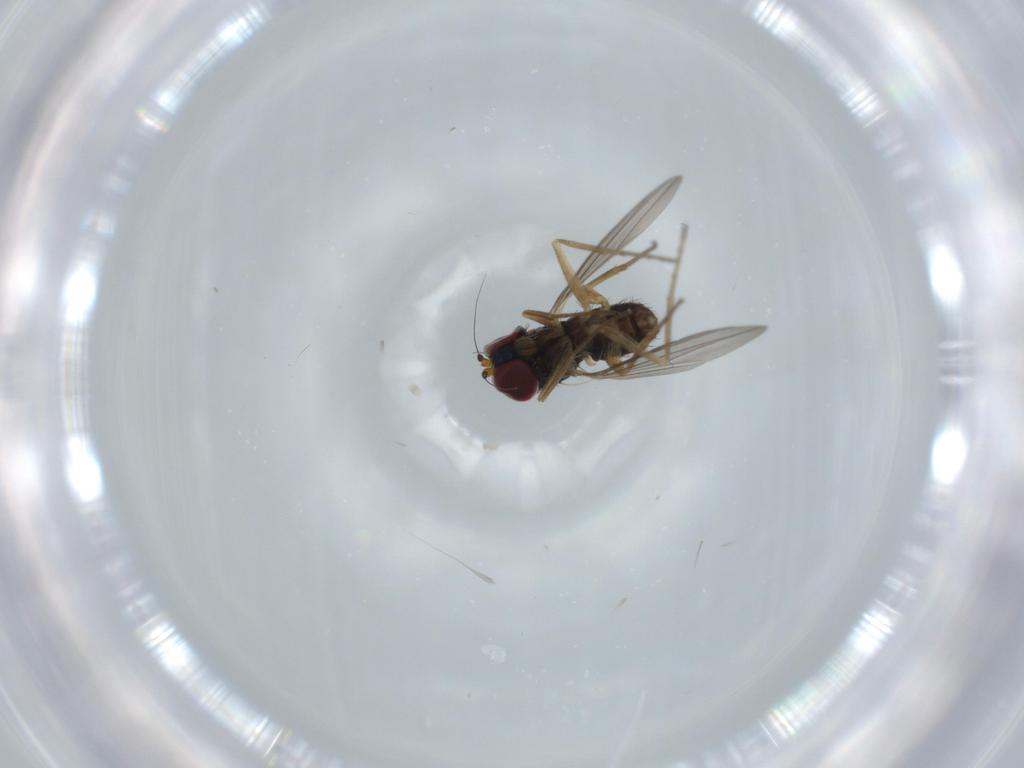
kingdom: Animalia
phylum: Arthropoda
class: Insecta
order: Diptera
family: Dolichopodidae
